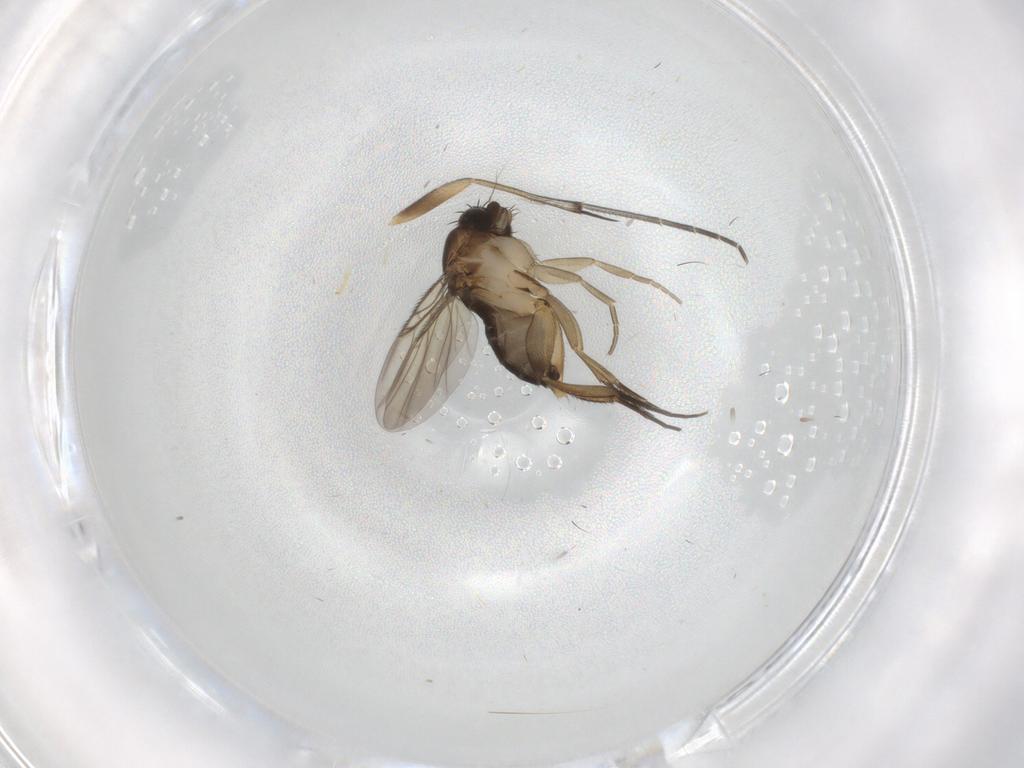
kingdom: Animalia
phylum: Arthropoda
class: Insecta
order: Diptera
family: Phoridae
